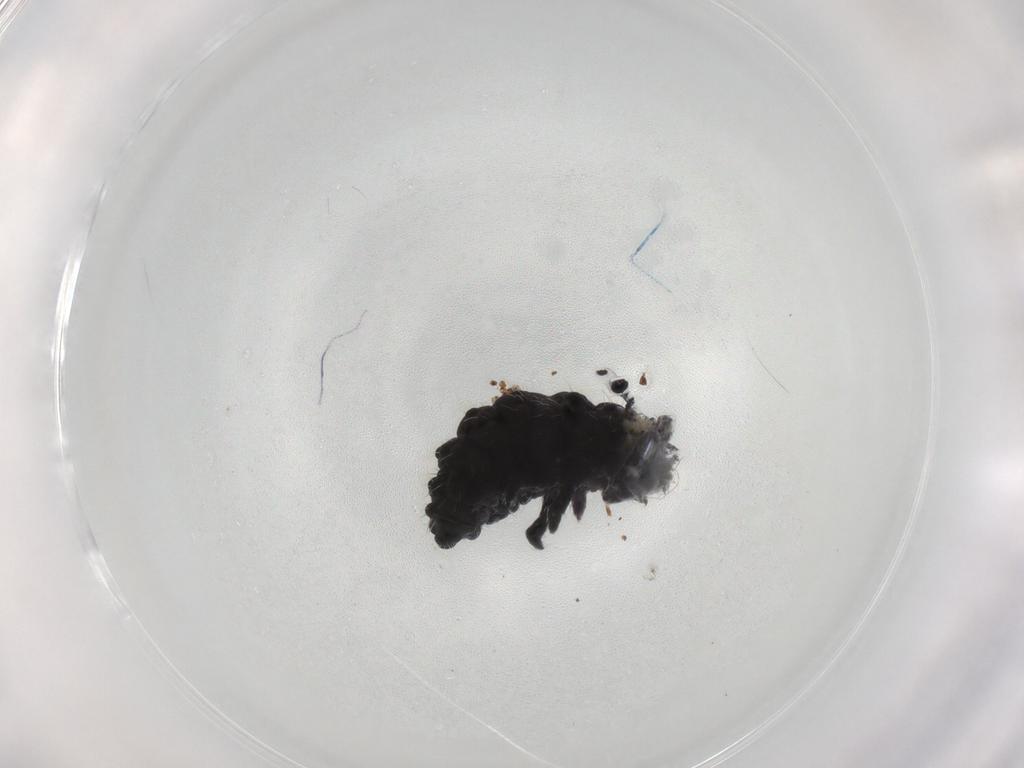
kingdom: Animalia
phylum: Arthropoda
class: Collembola
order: Poduromorpha
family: Neanuridae
